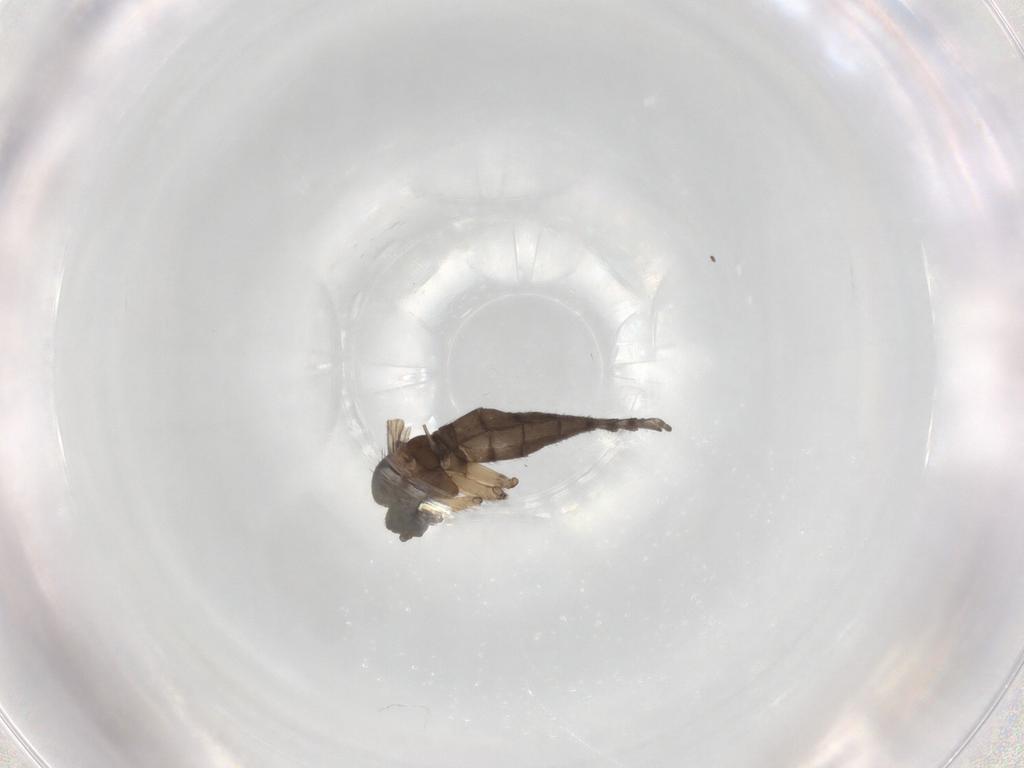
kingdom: Animalia
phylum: Arthropoda
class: Insecta
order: Diptera
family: Sciaridae
